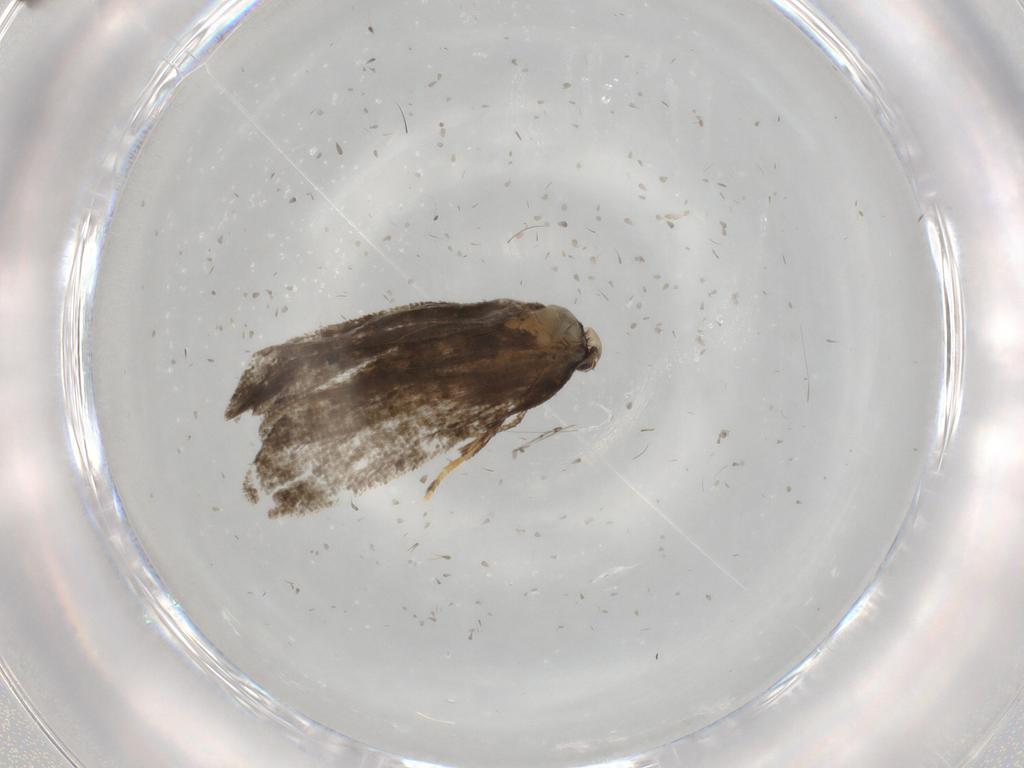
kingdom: Animalia
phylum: Arthropoda
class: Insecta
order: Lepidoptera
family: Psychidae
